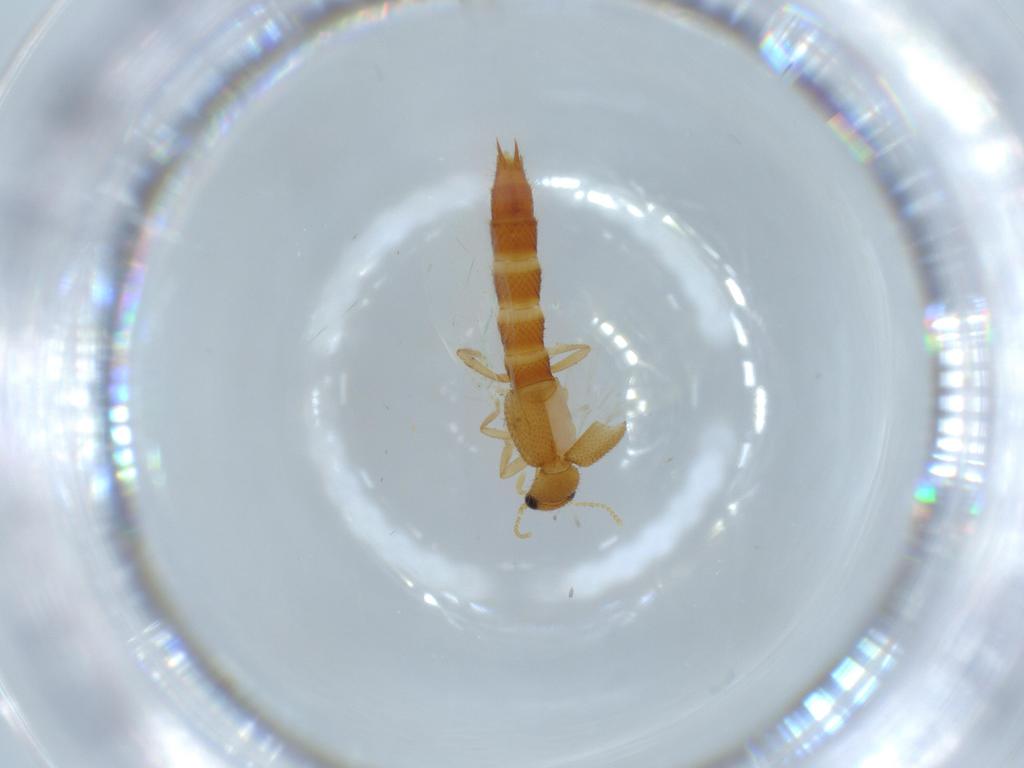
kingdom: Animalia
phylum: Arthropoda
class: Insecta
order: Coleoptera
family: Staphylinidae
